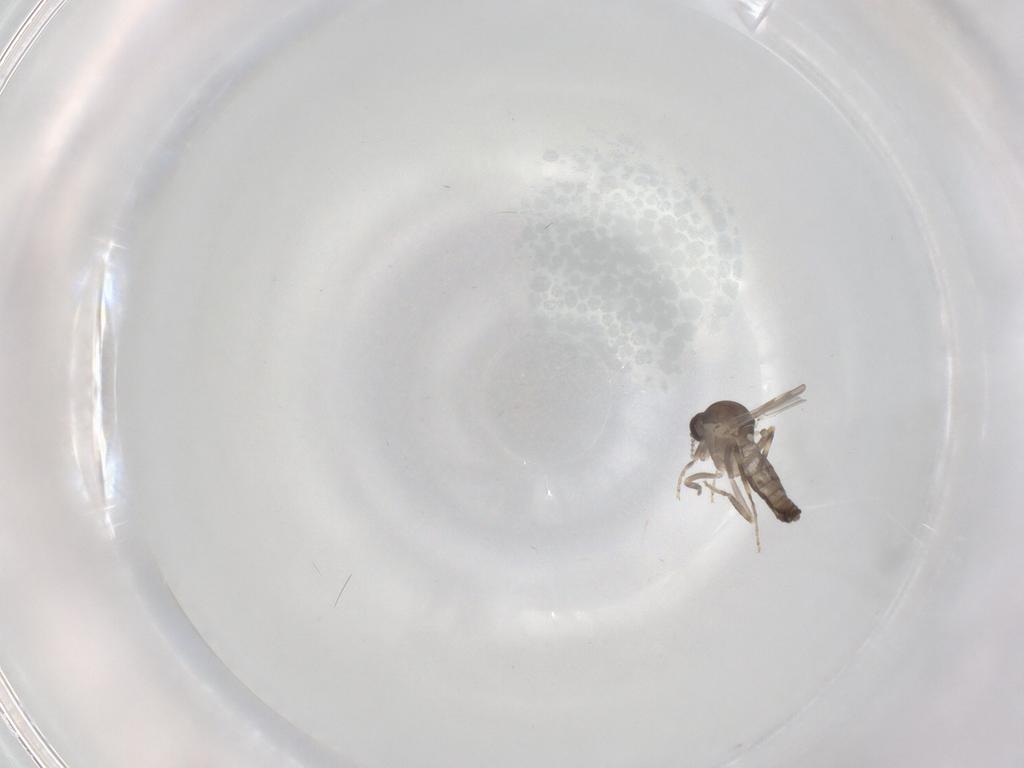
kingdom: Animalia
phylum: Arthropoda
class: Insecta
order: Diptera
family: Ceratopogonidae
